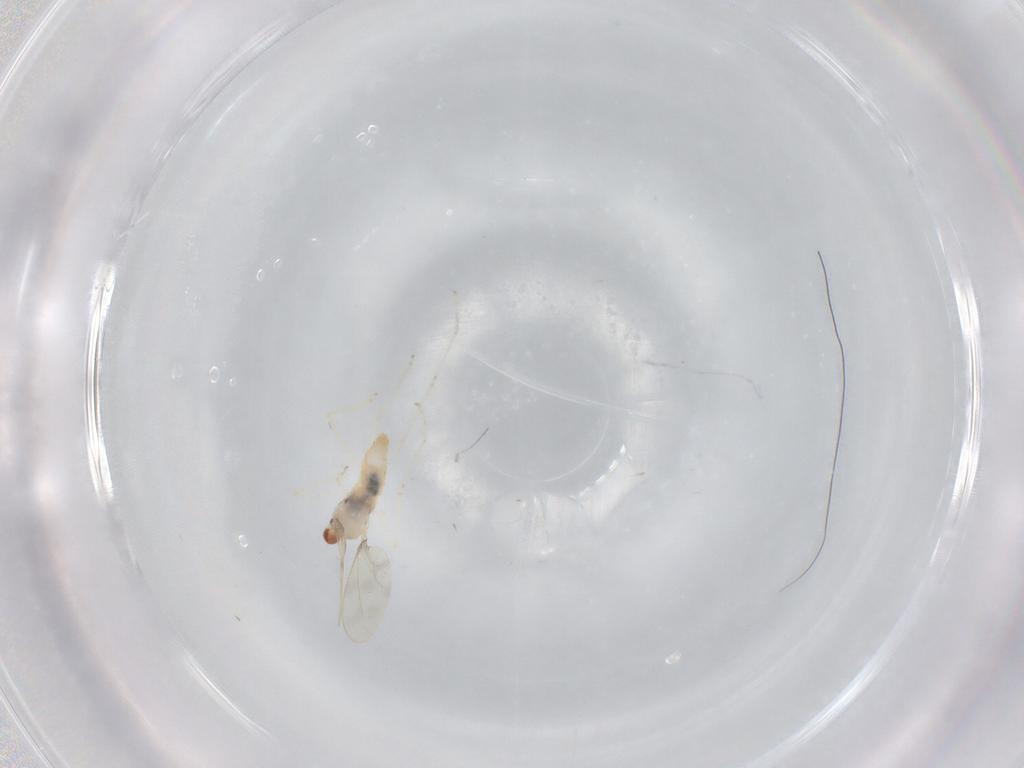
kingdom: Animalia
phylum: Arthropoda
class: Insecta
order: Diptera
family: Cecidomyiidae
